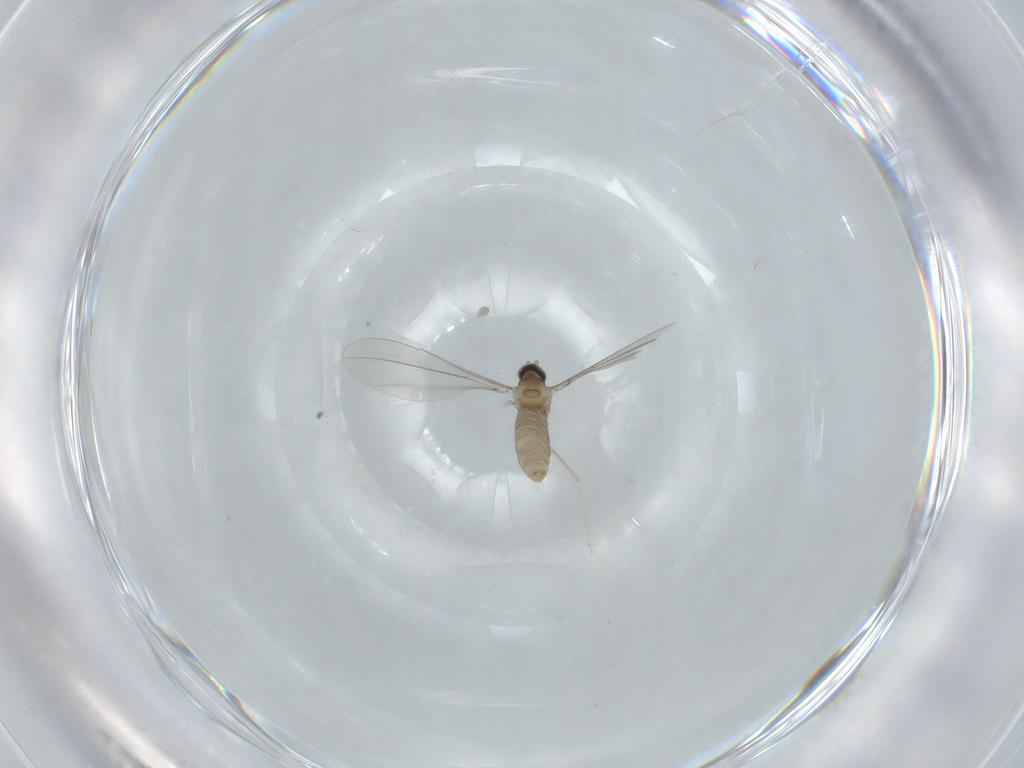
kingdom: Animalia
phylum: Arthropoda
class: Insecta
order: Diptera
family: Cecidomyiidae
